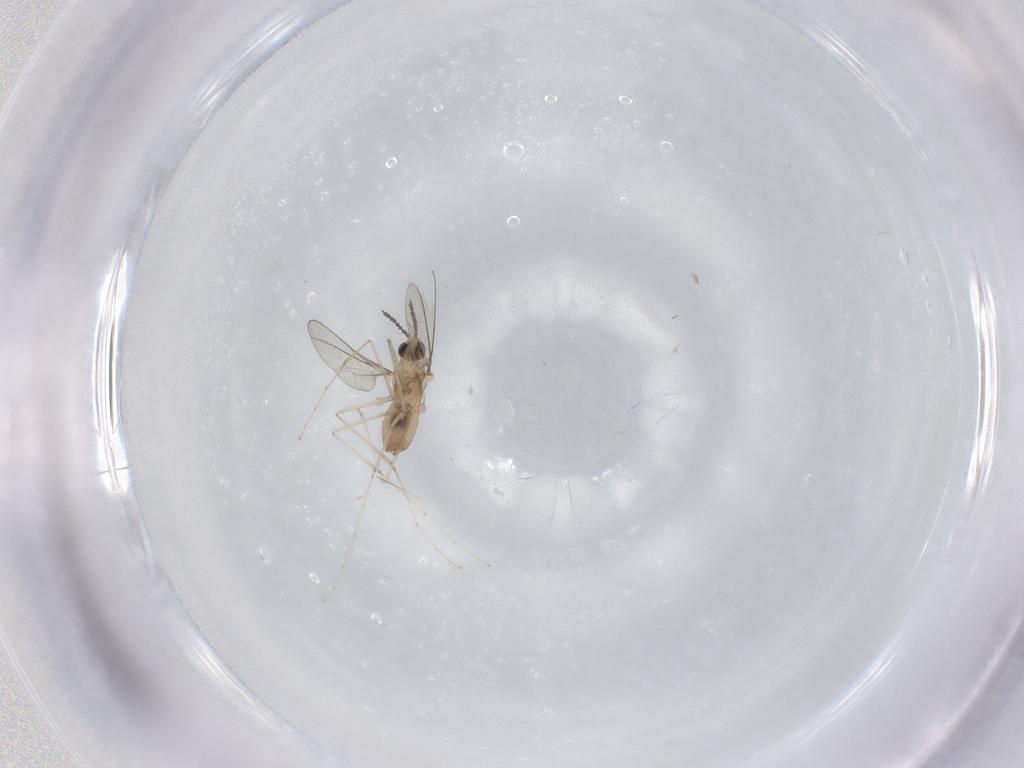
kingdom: Animalia
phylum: Arthropoda
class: Insecta
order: Diptera
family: Cecidomyiidae
